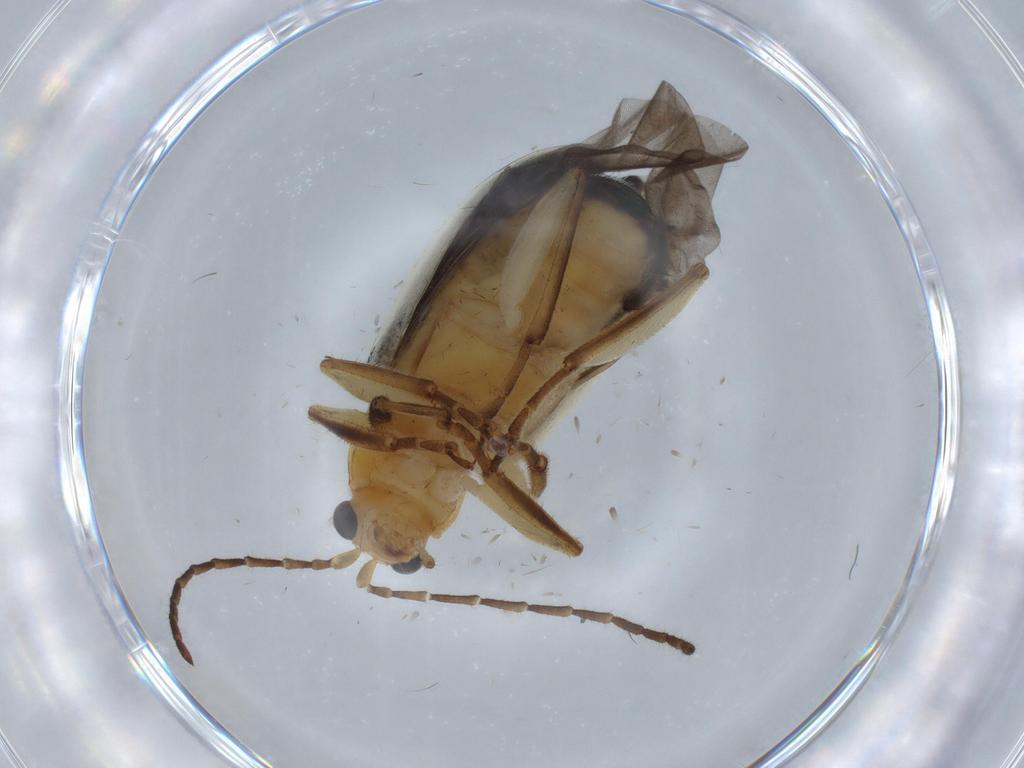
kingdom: Animalia
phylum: Arthropoda
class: Insecta
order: Coleoptera
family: Chrysomelidae
